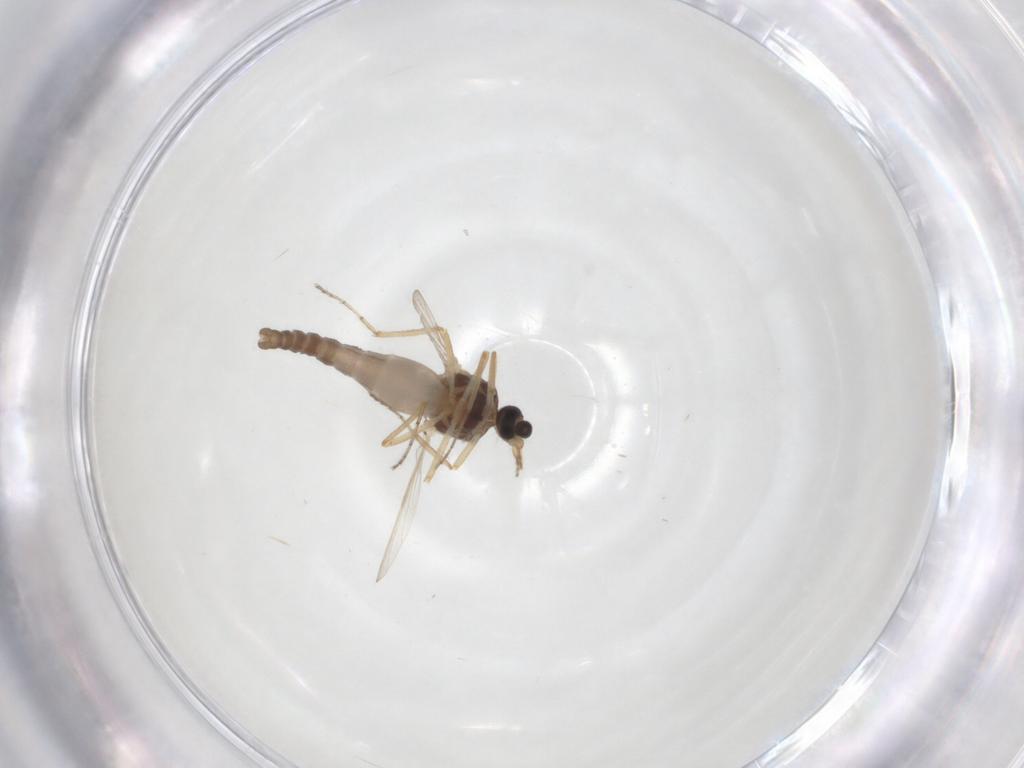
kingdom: Animalia
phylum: Arthropoda
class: Insecta
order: Diptera
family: Ceratopogonidae
